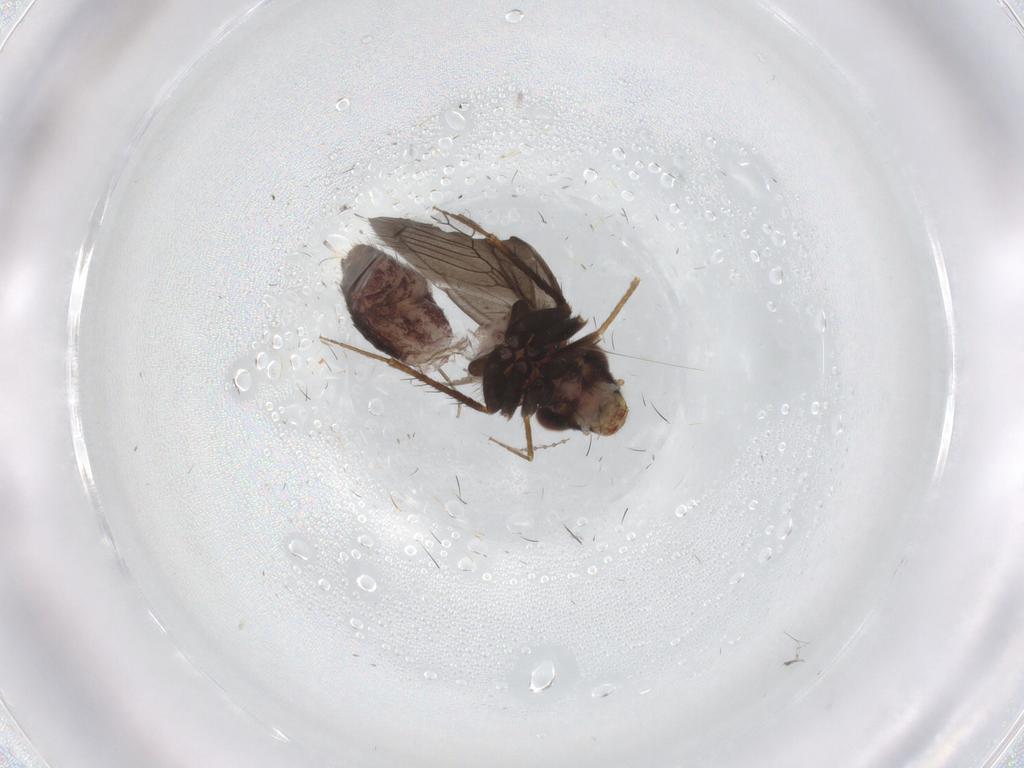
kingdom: Animalia
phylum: Arthropoda
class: Insecta
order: Psocodea
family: Lepidopsocidae
